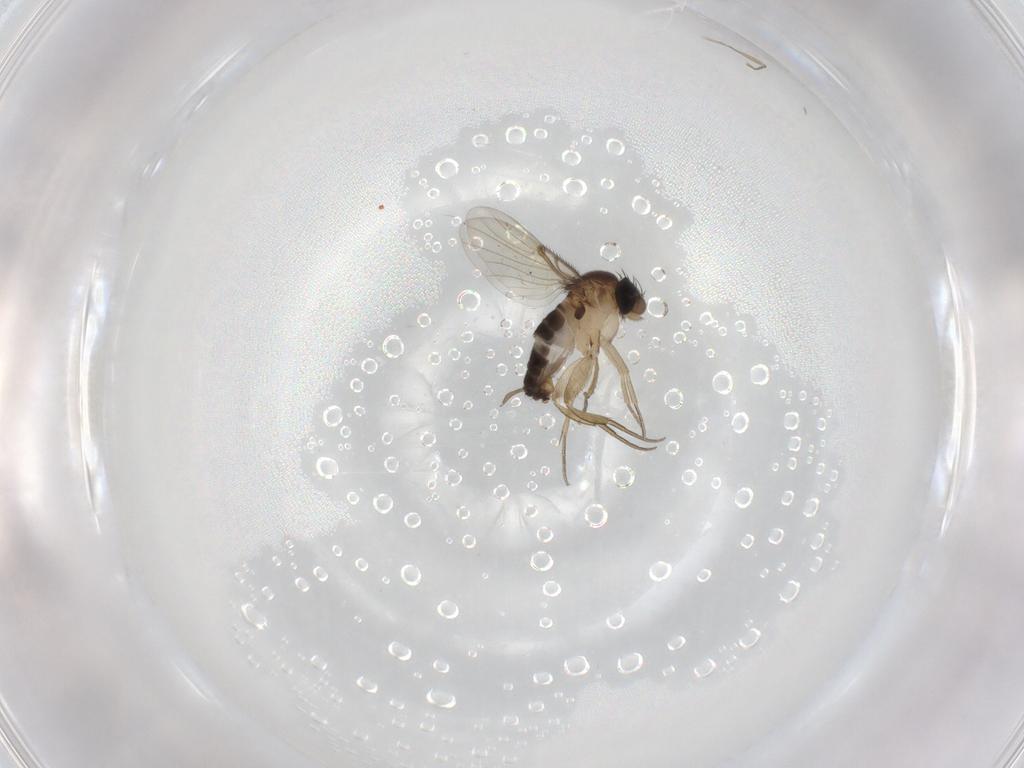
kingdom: Animalia
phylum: Arthropoda
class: Insecta
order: Diptera
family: Cecidomyiidae
